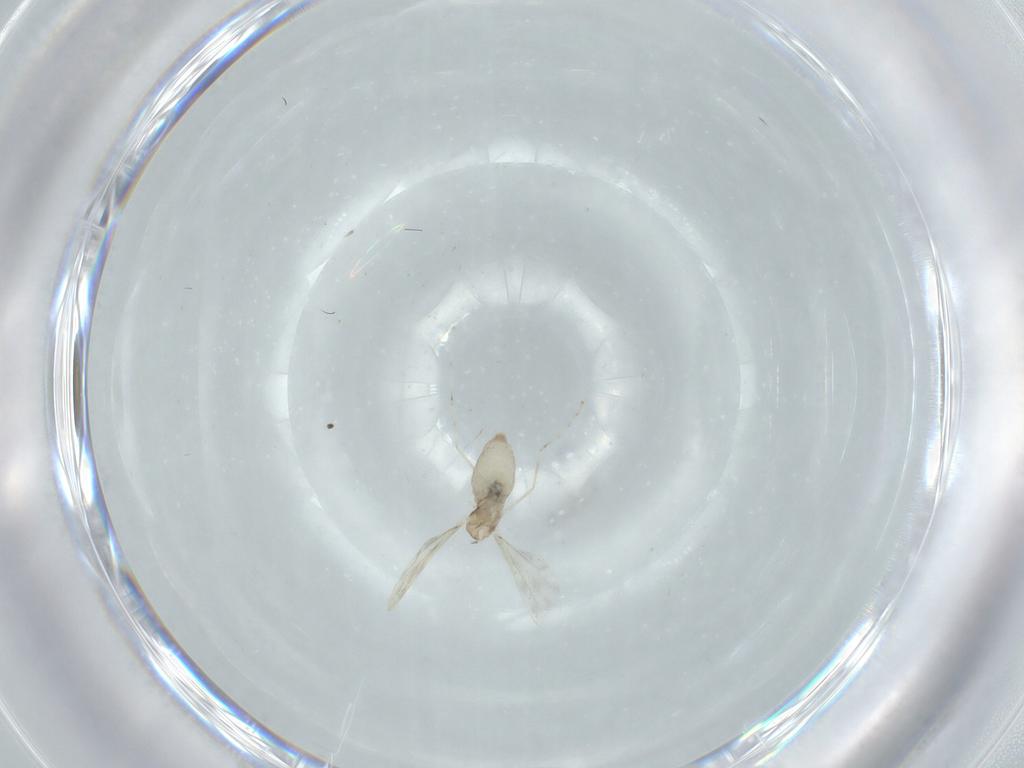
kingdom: Animalia
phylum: Arthropoda
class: Insecta
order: Diptera
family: Cecidomyiidae
